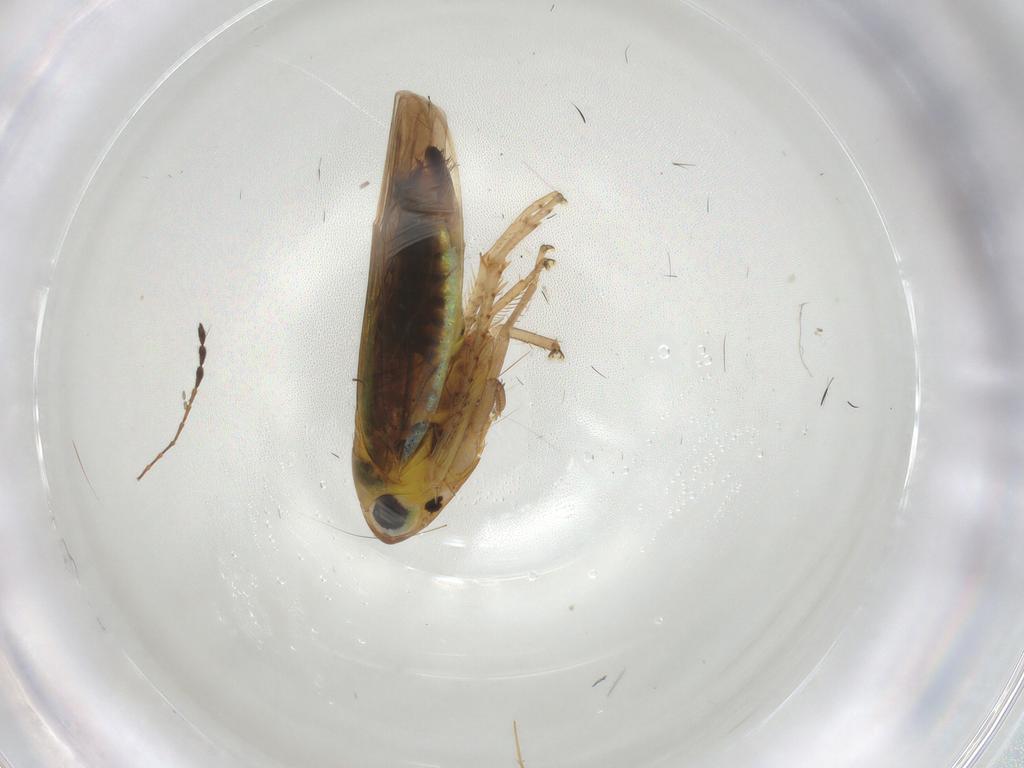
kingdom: Animalia
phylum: Arthropoda
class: Insecta
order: Hemiptera
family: Cicadellidae
